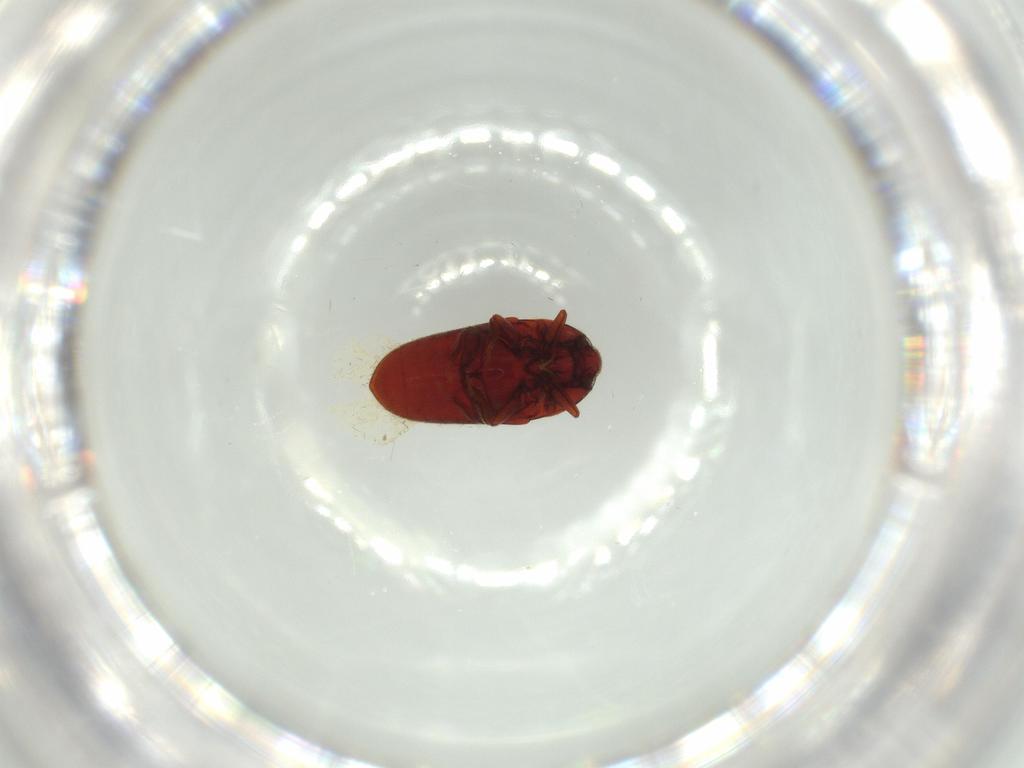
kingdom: Animalia
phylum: Arthropoda
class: Insecta
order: Coleoptera
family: Throscidae
